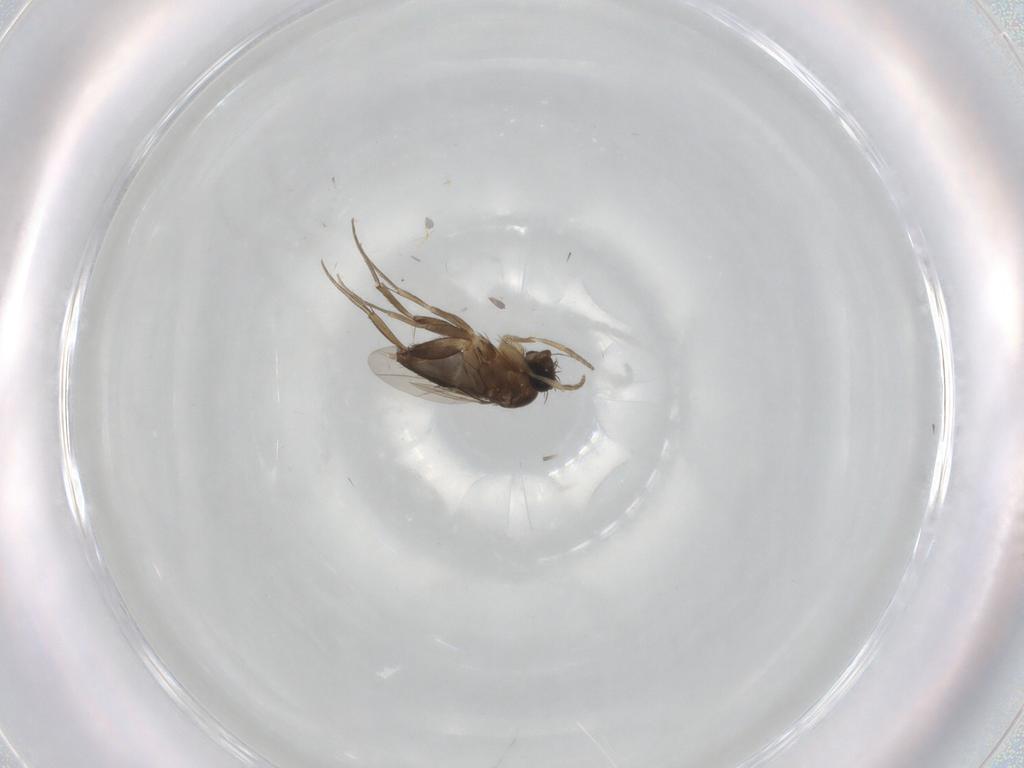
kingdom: Animalia
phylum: Arthropoda
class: Insecta
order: Diptera
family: Phoridae
